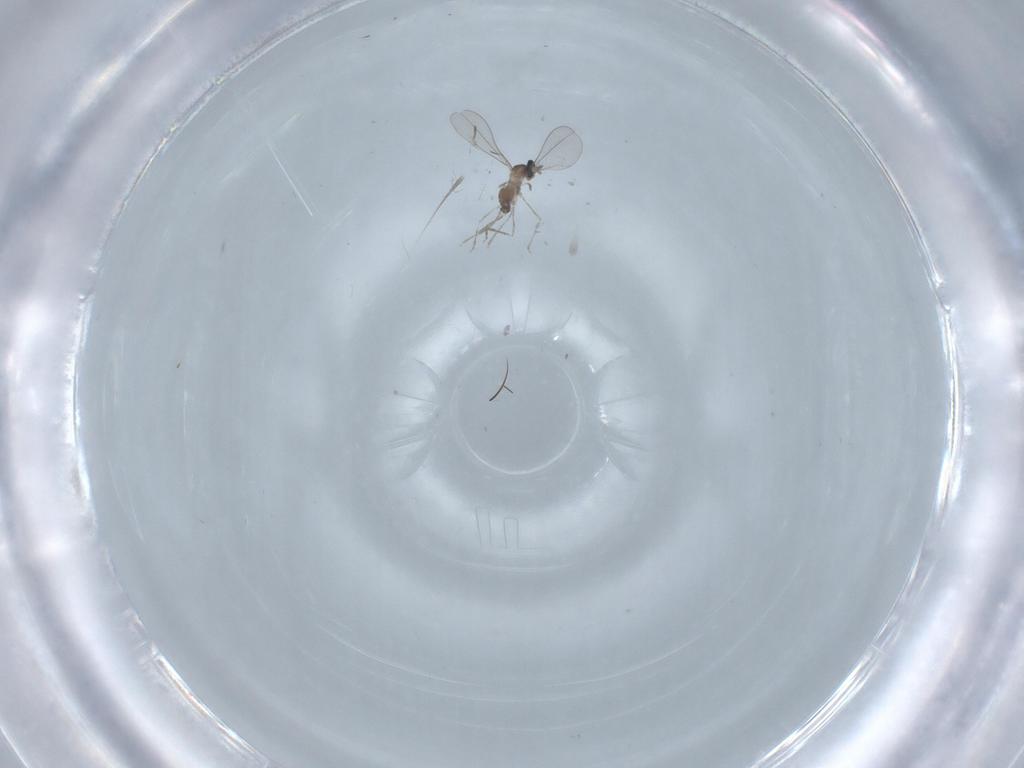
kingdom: Animalia
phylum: Arthropoda
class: Insecta
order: Diptera
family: Cecidomyiidae
